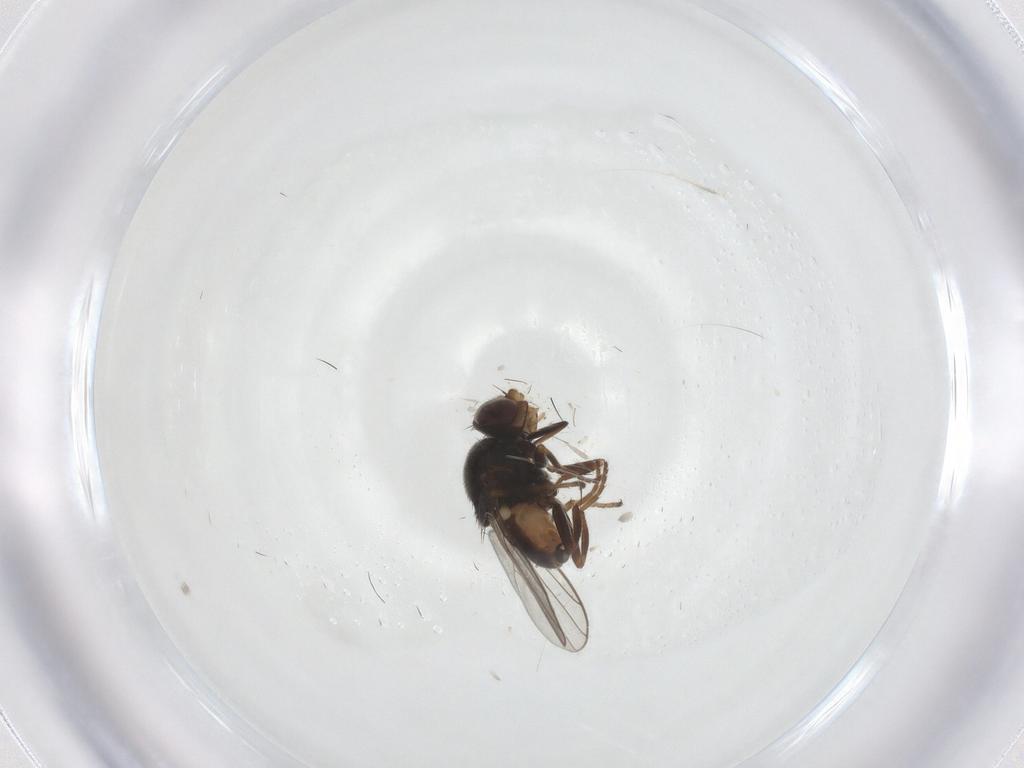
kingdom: Animalia
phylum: Arthropoda
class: Insecta
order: Diptera
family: Chloropidae
